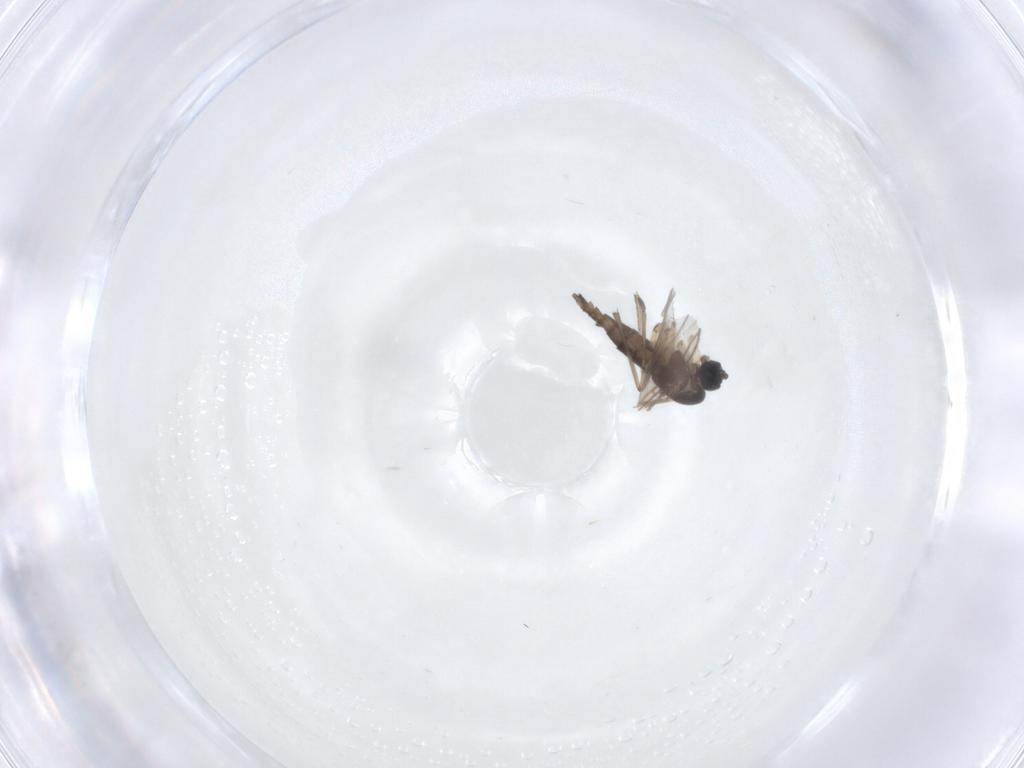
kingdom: Animalia
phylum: Arthropoda
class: Insecta
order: Diptera
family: Sciaridae
